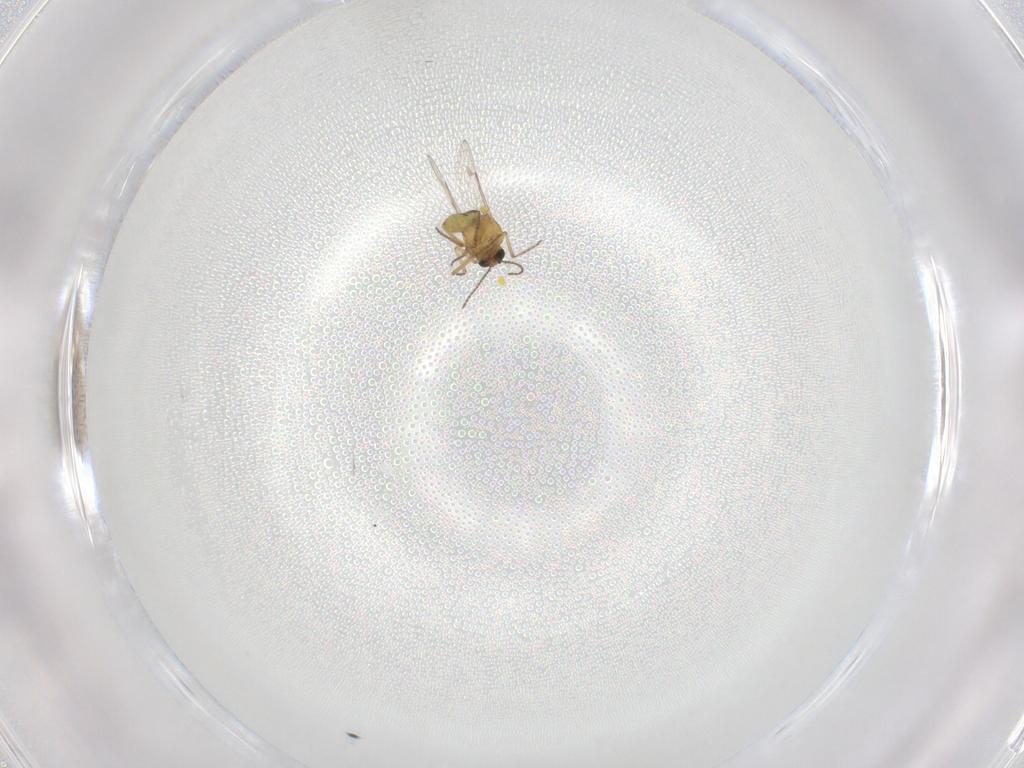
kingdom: Animalia
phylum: Arthropoda
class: Insecta
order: Diptera
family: Ceratopogonidae
